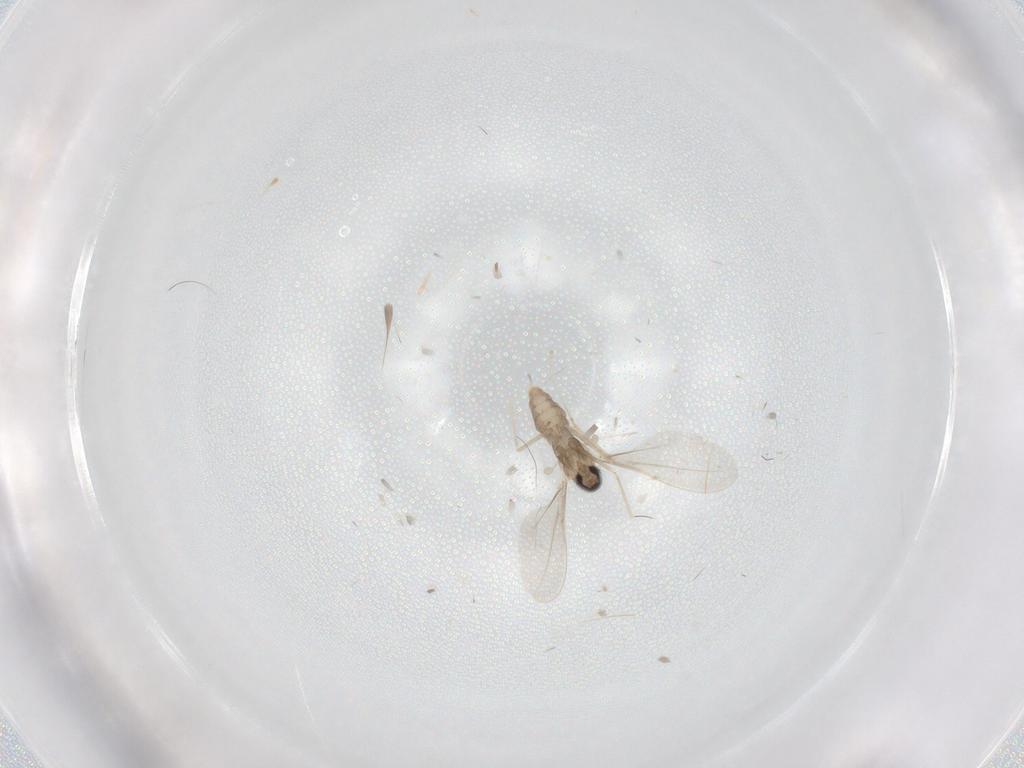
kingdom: Animalia
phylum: Arthropoda
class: Insecta
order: Diptera
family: Cecidomyiidae
